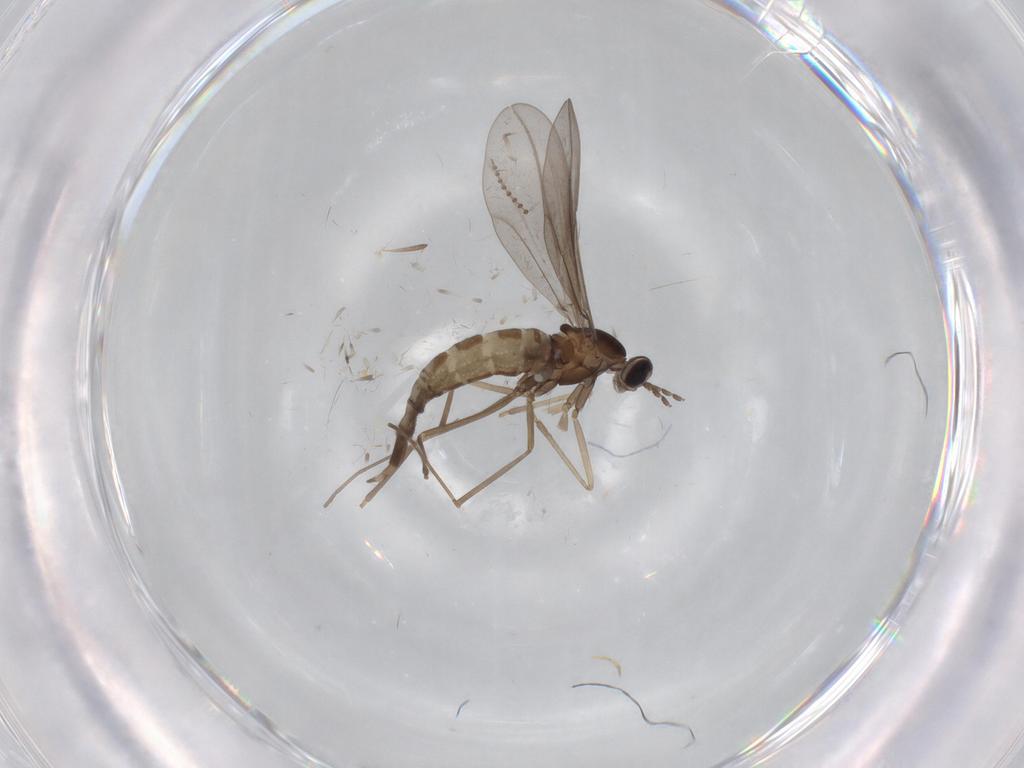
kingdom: Animalia
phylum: Arthropoda
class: Insecta
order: Diptera
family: Cecidomyiidae
